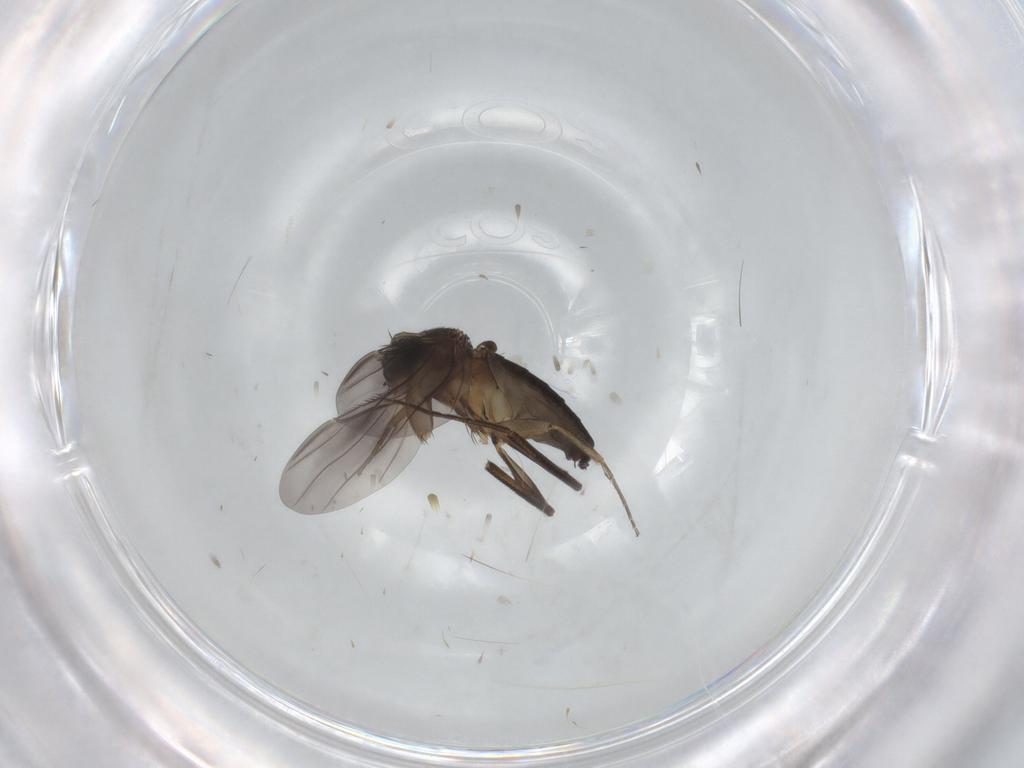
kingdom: Animalia
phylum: Arthropoda
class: Insecta
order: Diptera
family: Phoridae
